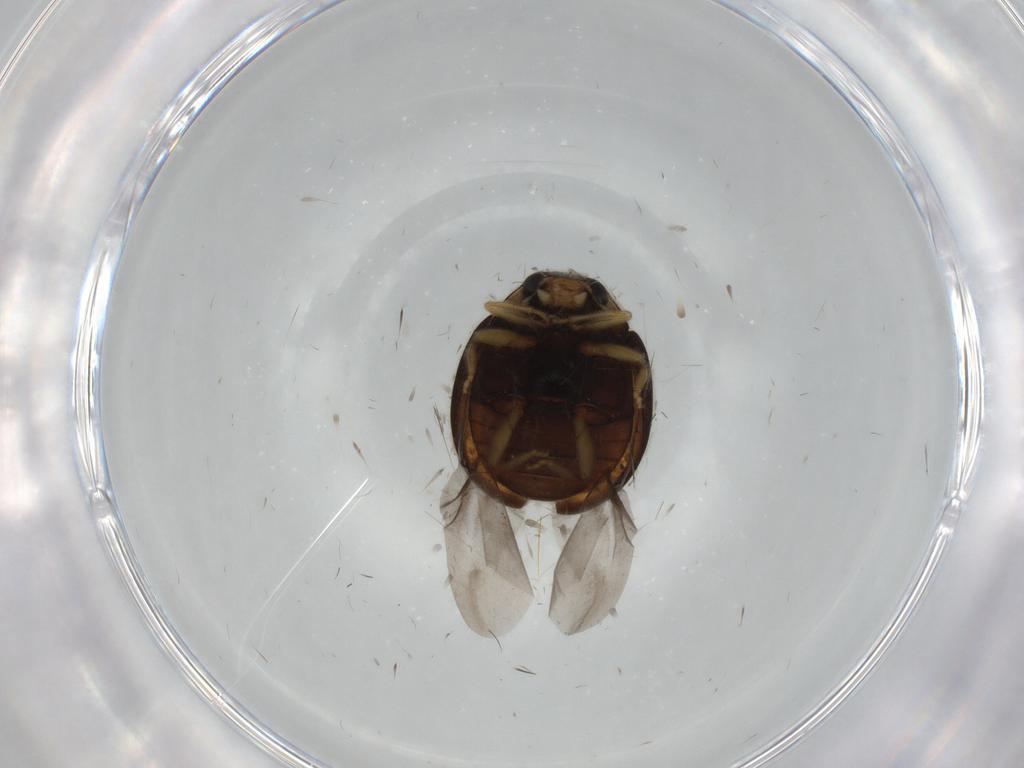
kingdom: Animalia
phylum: Arthropoda
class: Insecta
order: Coleoptera
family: Coccinellidae
